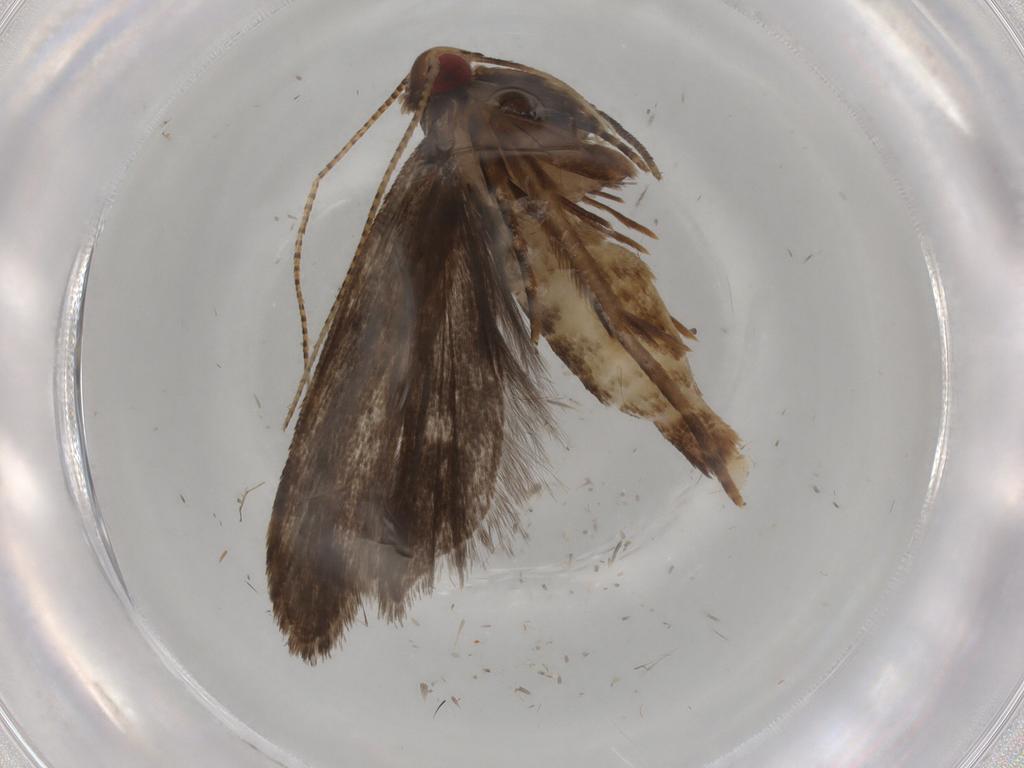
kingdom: Animalia
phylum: Arthropoda
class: Insecta
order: Lepidoptera
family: Gelechiidae
